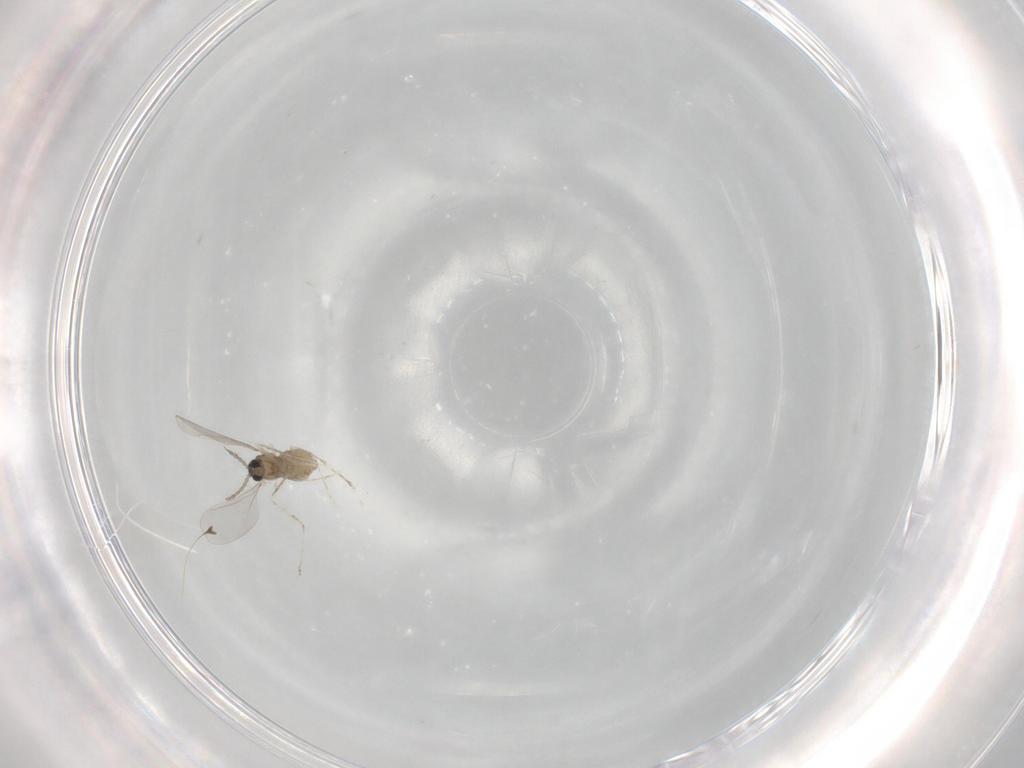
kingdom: Animalia
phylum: Arthropoda
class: Insecta
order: Diptera
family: Cecidomyiidae
